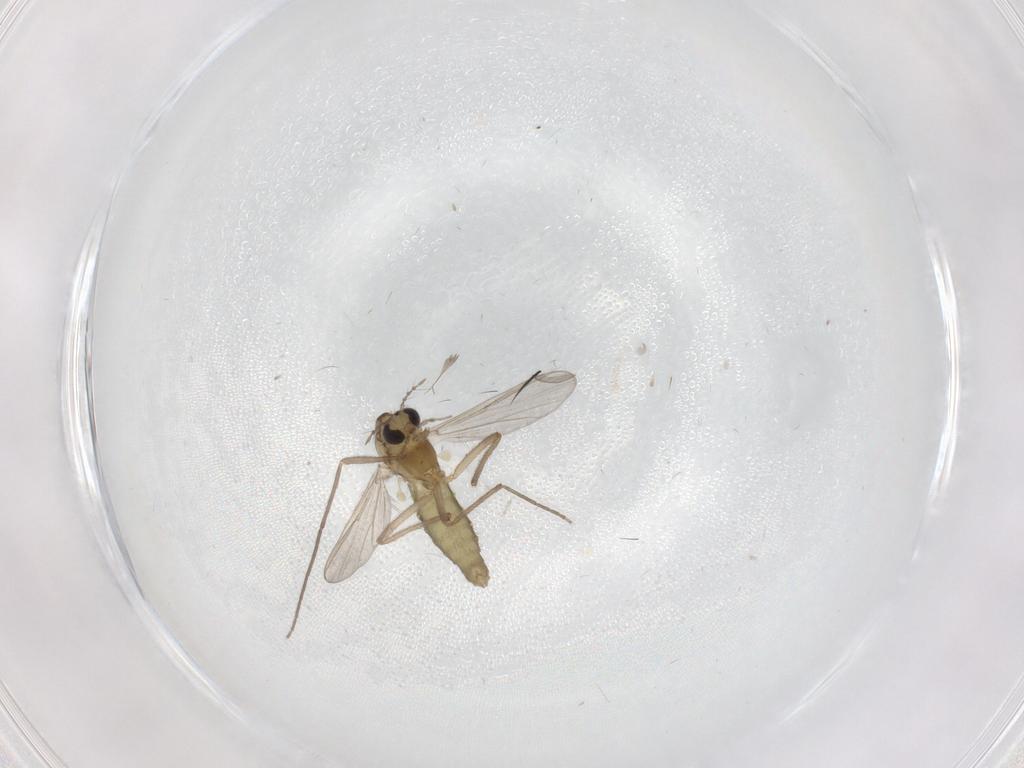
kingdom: Animalia
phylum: Arthropoda
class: Insecta
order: Diptera
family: Chironomidae
